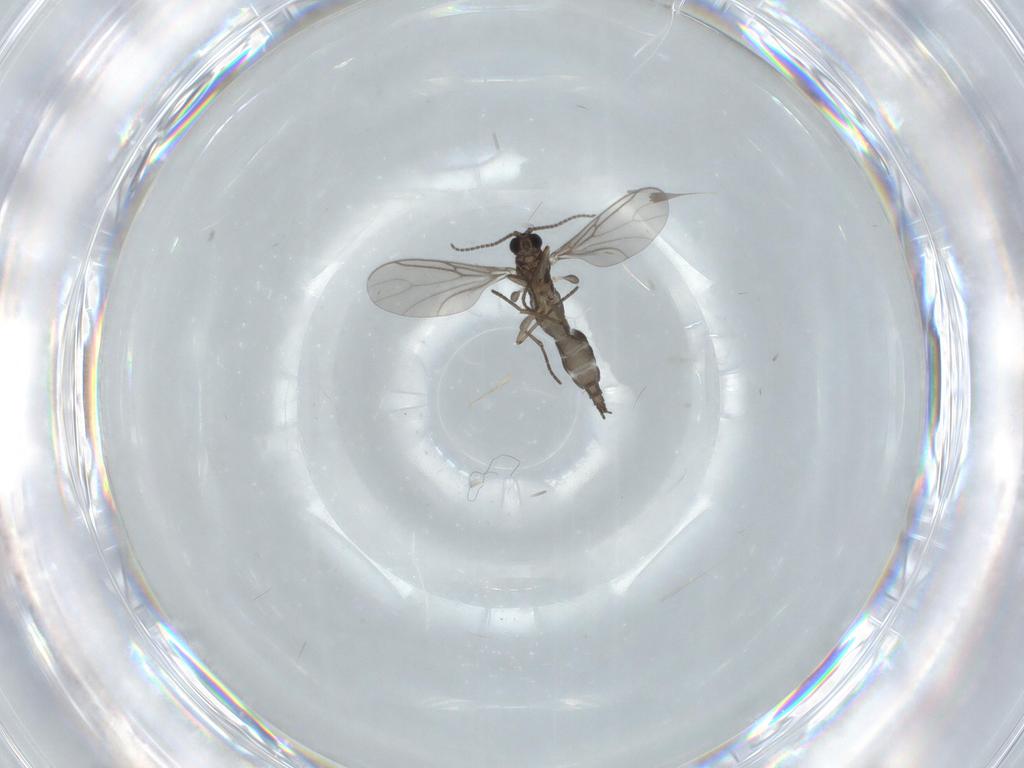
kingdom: Animalia
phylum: Arthropoda
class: Insecta
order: Diptera
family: Sciaridae
